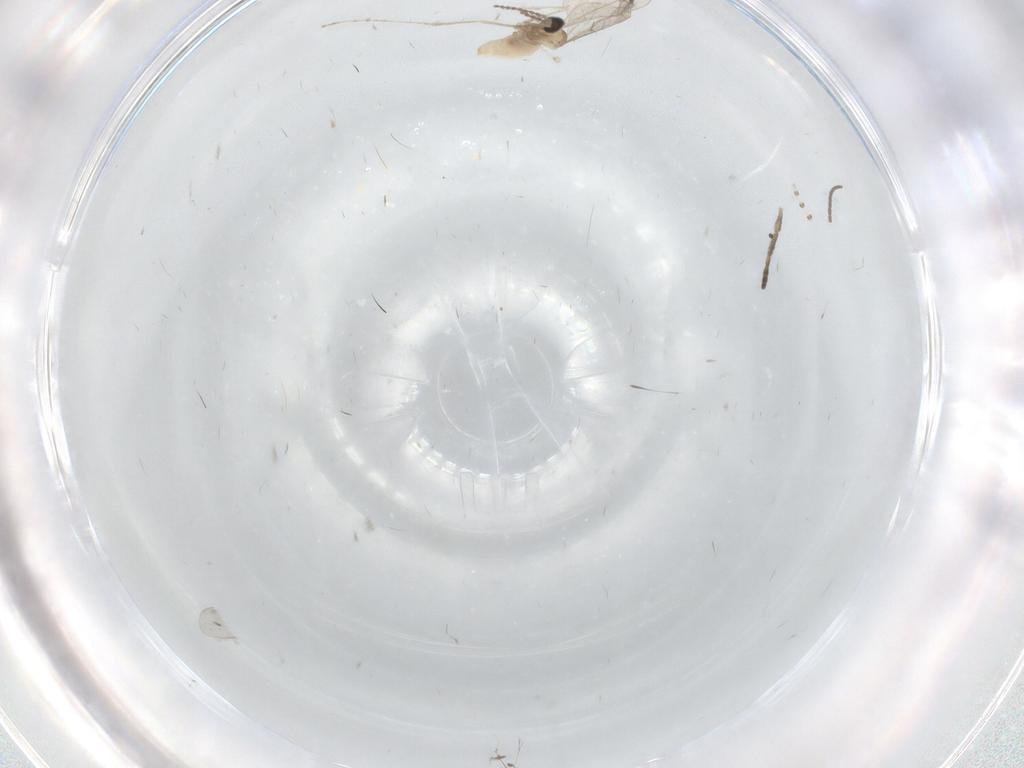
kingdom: Animalia
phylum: Arthropoda
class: Insecta
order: Diptera
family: Psychodidae
